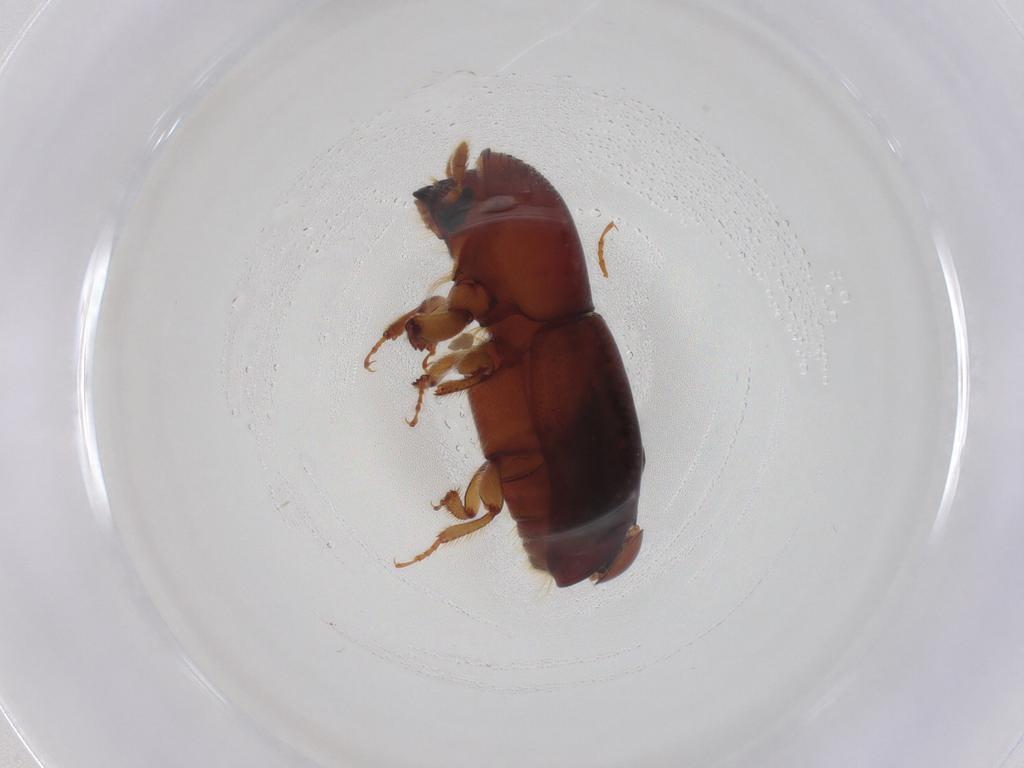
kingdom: Animalia
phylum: Arthropoda
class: Insecta
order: Coleoptera
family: Curculionidae
